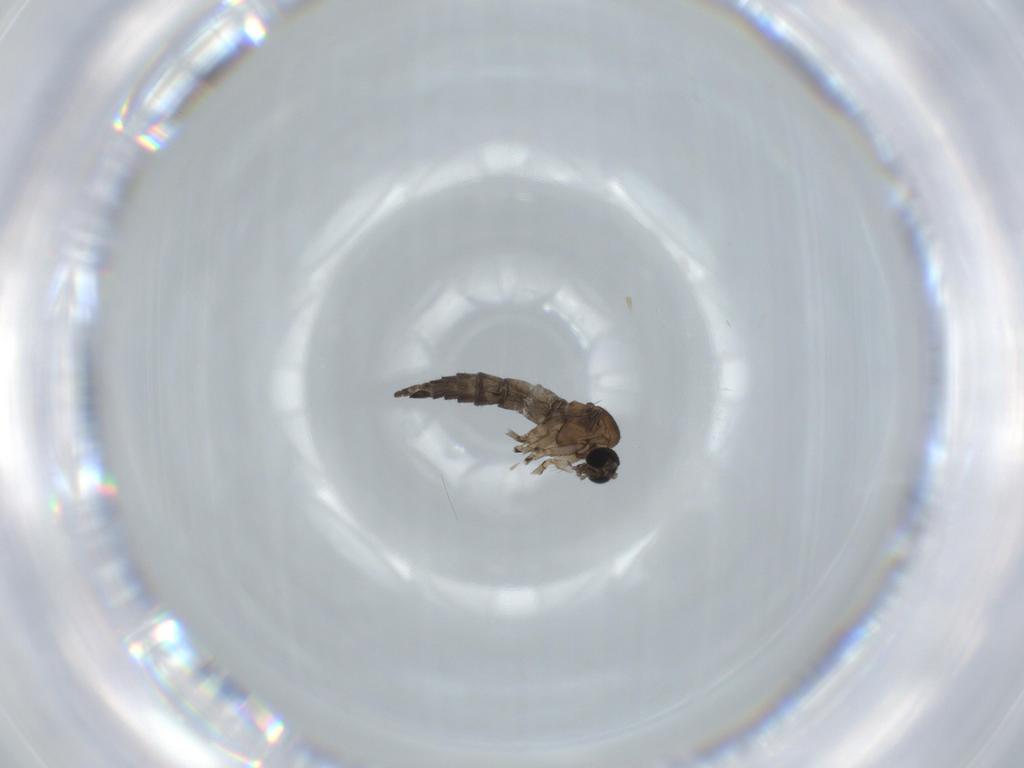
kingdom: Animalia
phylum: Arthropoda
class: Insecta
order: Diptera
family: Sciaridae
